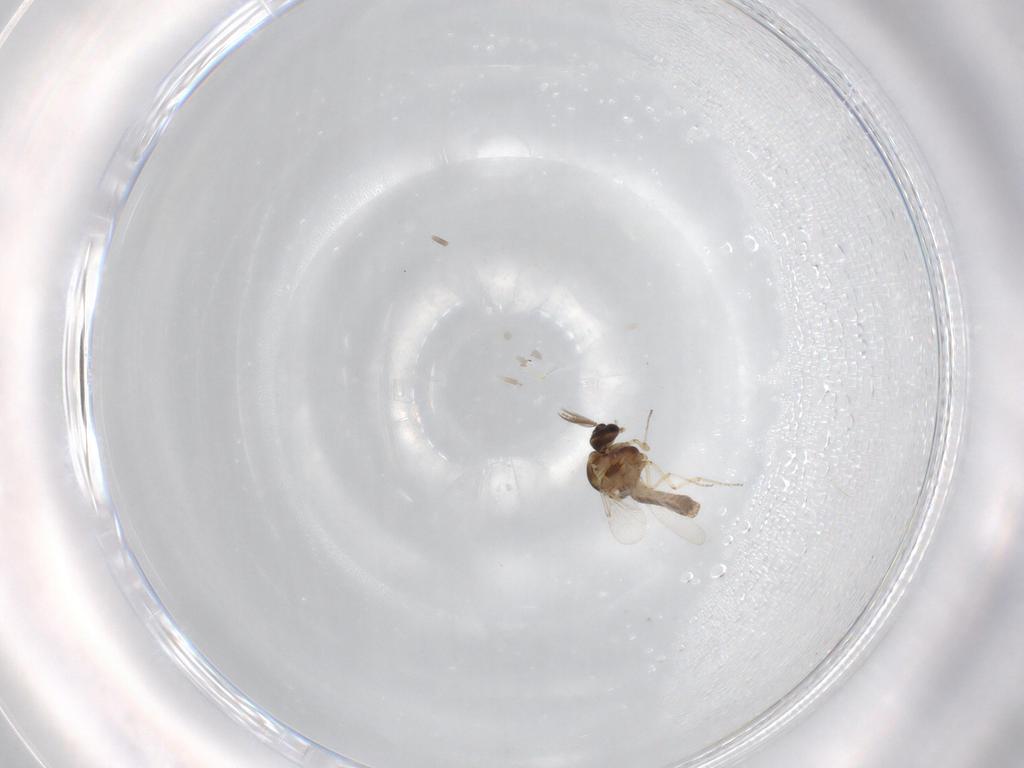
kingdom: Animalia
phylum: Arthropoda
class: Insecta
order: Diptera
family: Ceratopogonidae
